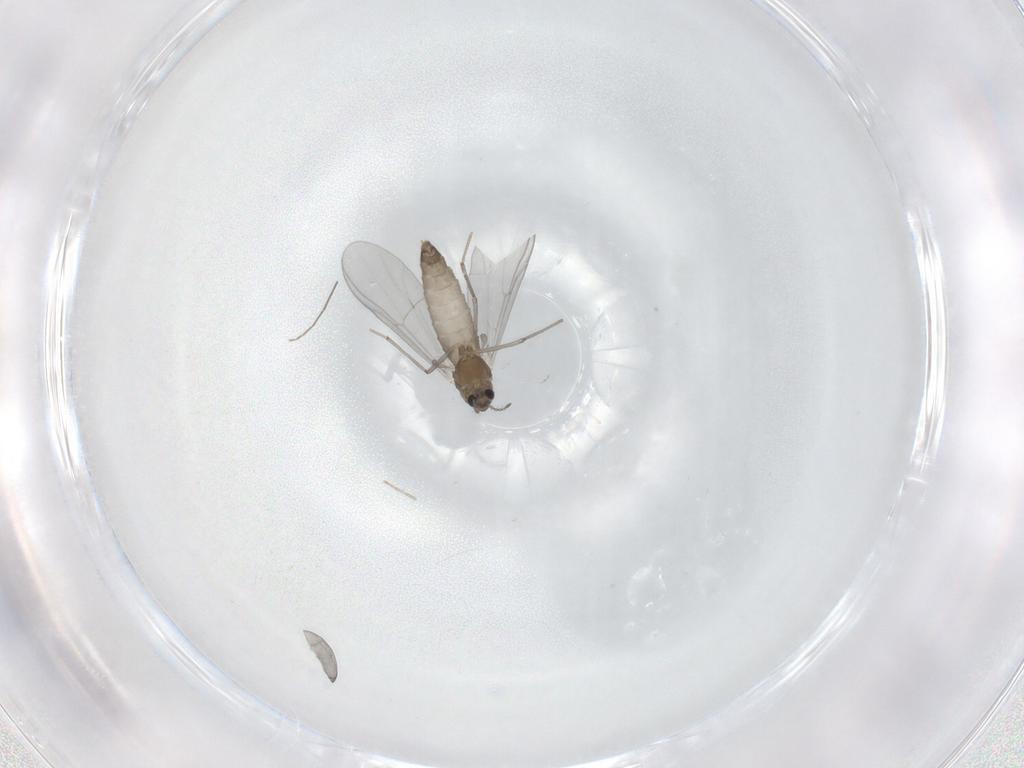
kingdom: Animalia
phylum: Arthropoda
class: Insecta
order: Diptera
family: Chironomidae
